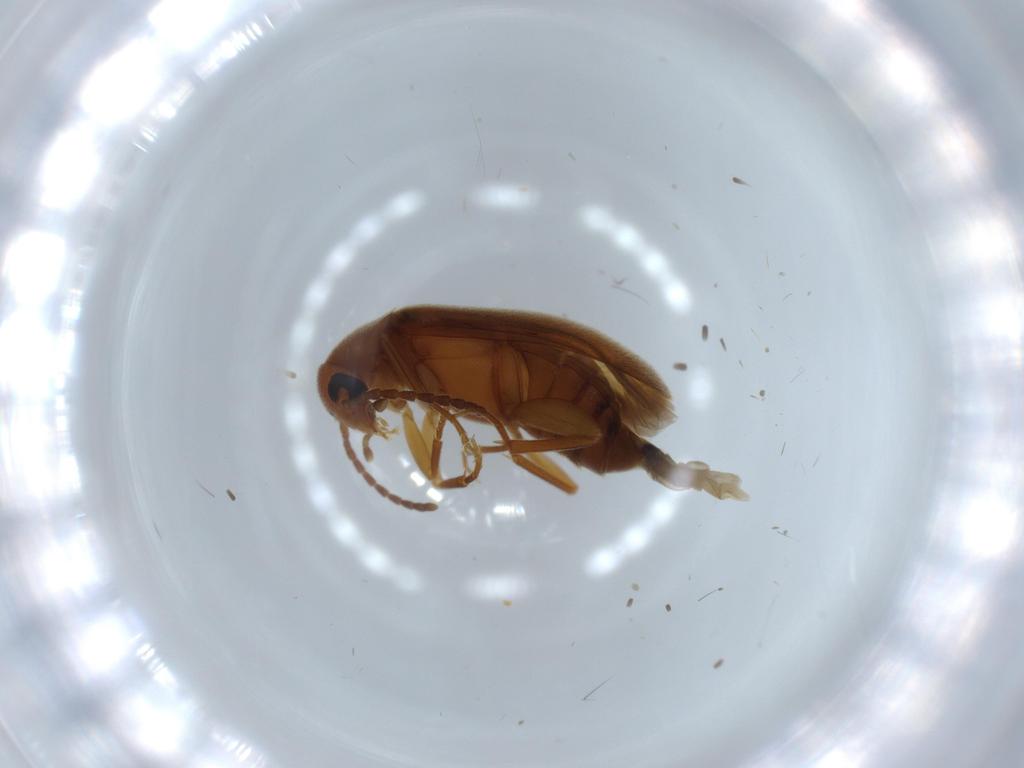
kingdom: Animalia
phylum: Arthropoda
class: Insecta
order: Coleoptera
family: Scraptiidae
